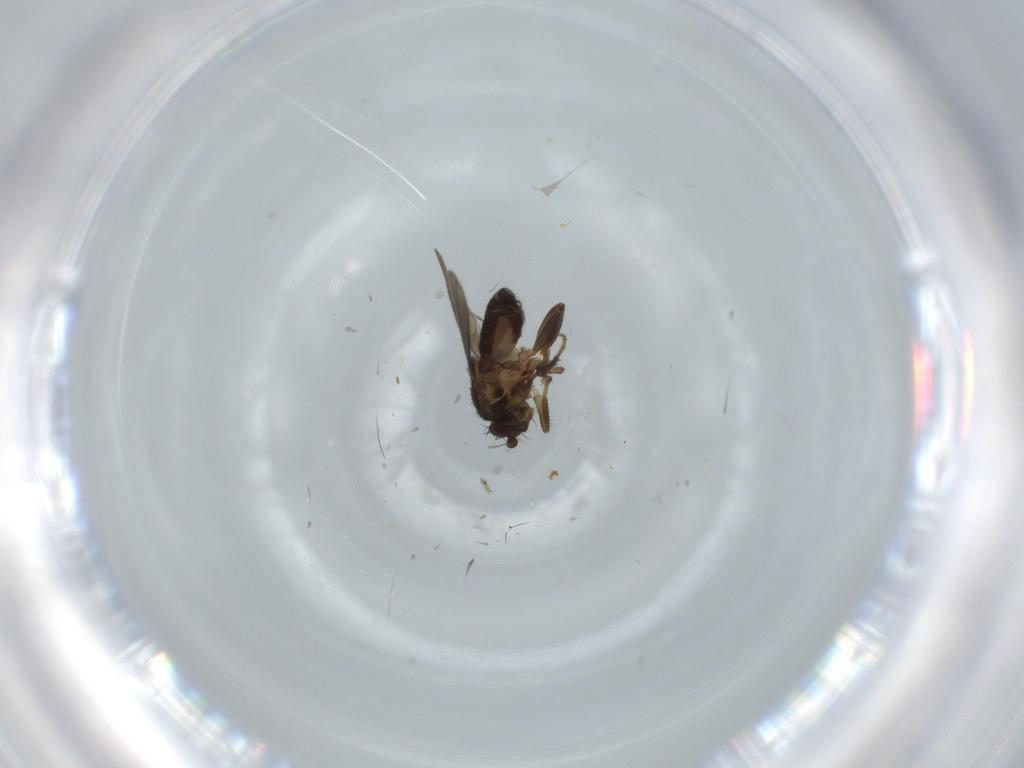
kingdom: Animalia
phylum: Arthropoda
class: Insecta
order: Diptera
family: Sphaeroceridae
